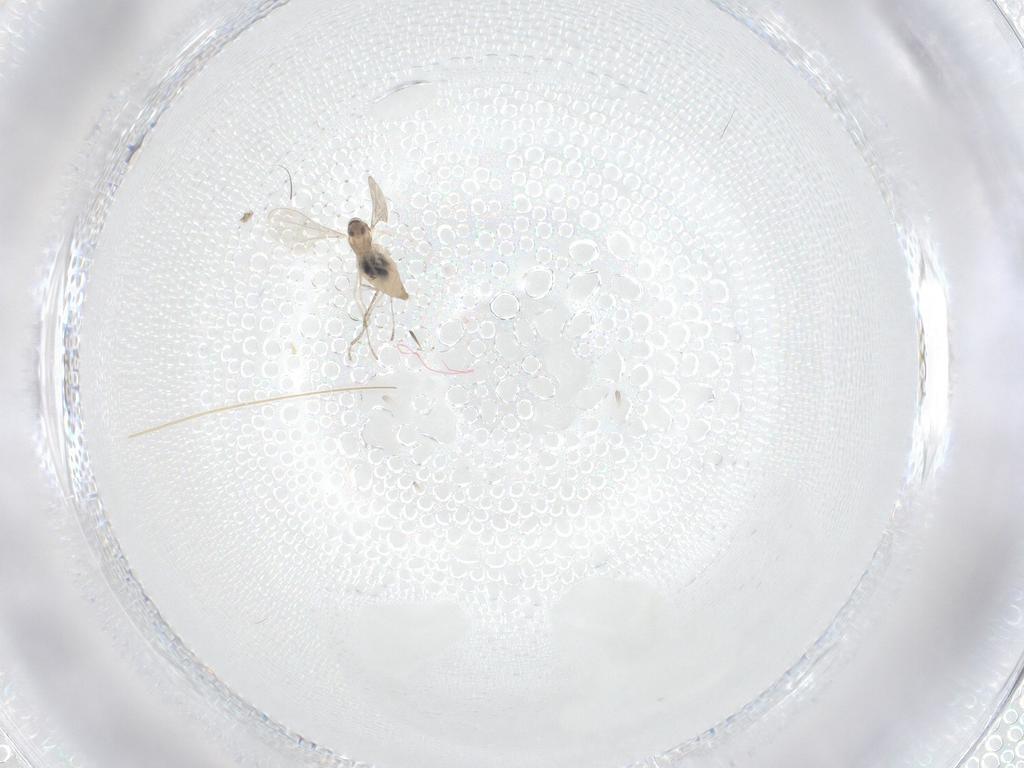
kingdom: Animalia
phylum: Arthropoda
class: Insecta
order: Diptera
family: Cecidomyiidae
